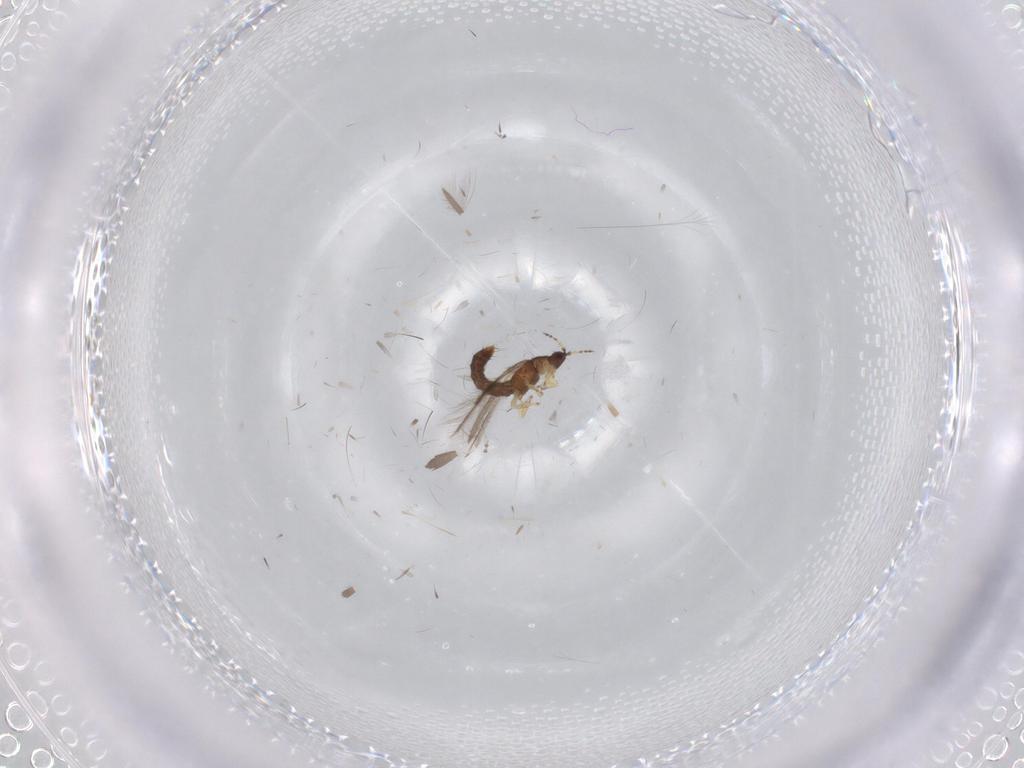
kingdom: Animalia
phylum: Arthropoda
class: Insecta
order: Thysanoptera
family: Thripidae
